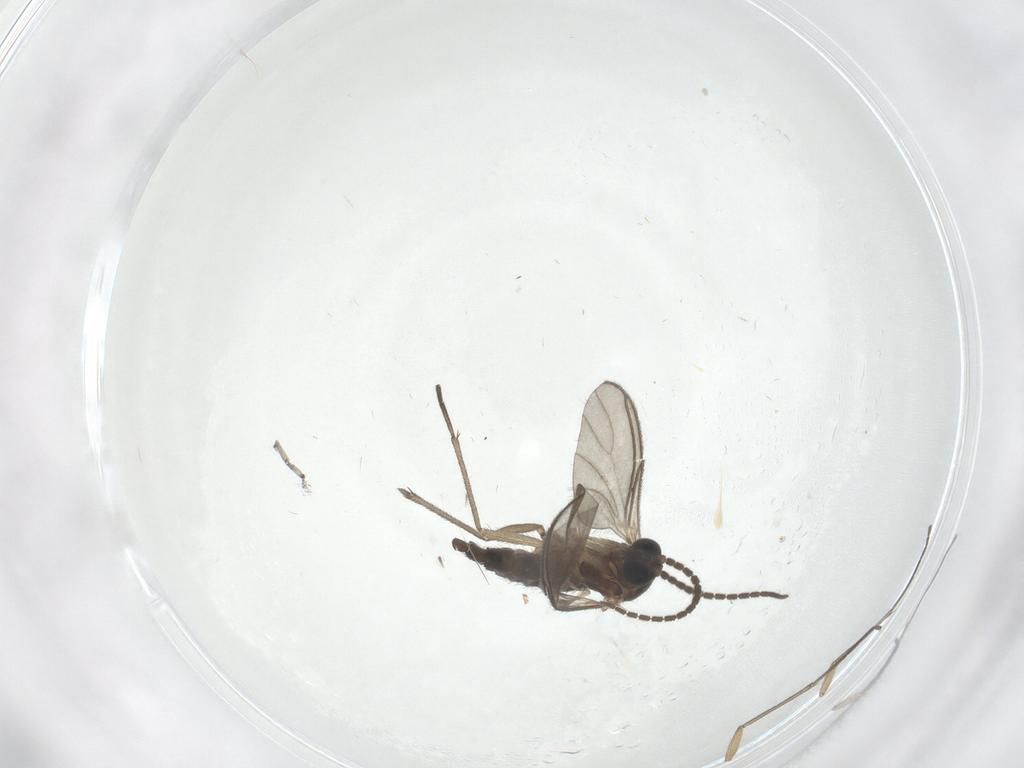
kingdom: Animalia
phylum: Arthropoda
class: Insecta
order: Diptera
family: Sciaridae
